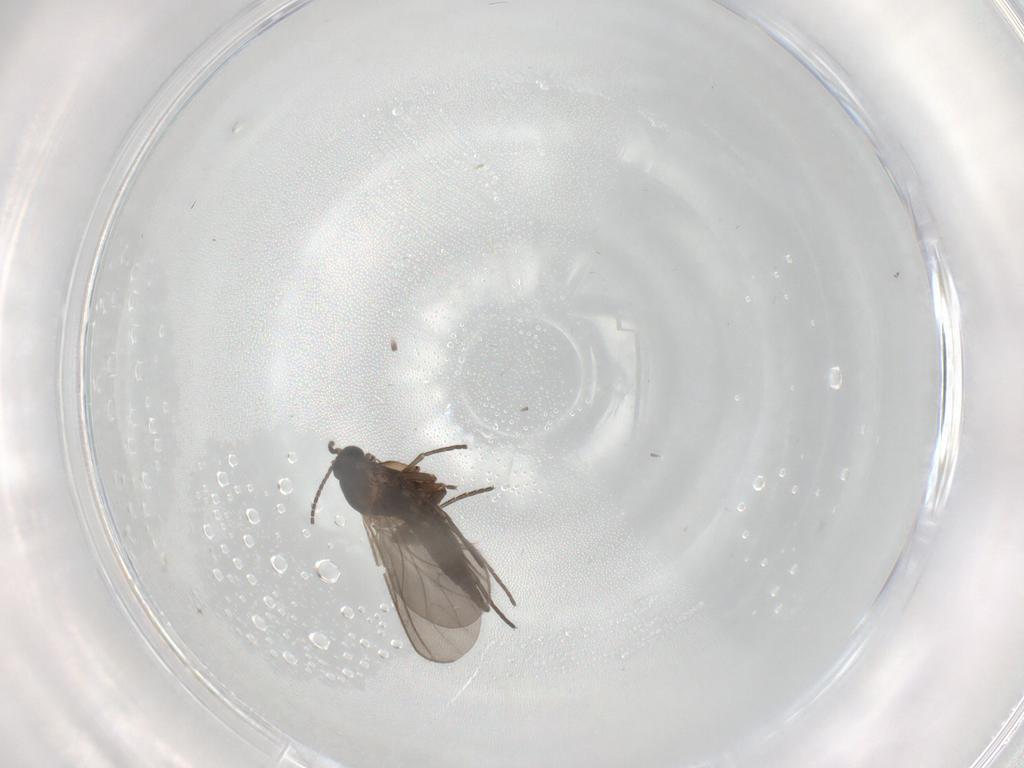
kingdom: Animalia
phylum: Arthropoda
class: Insecta
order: Diptera
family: Sciaridae
